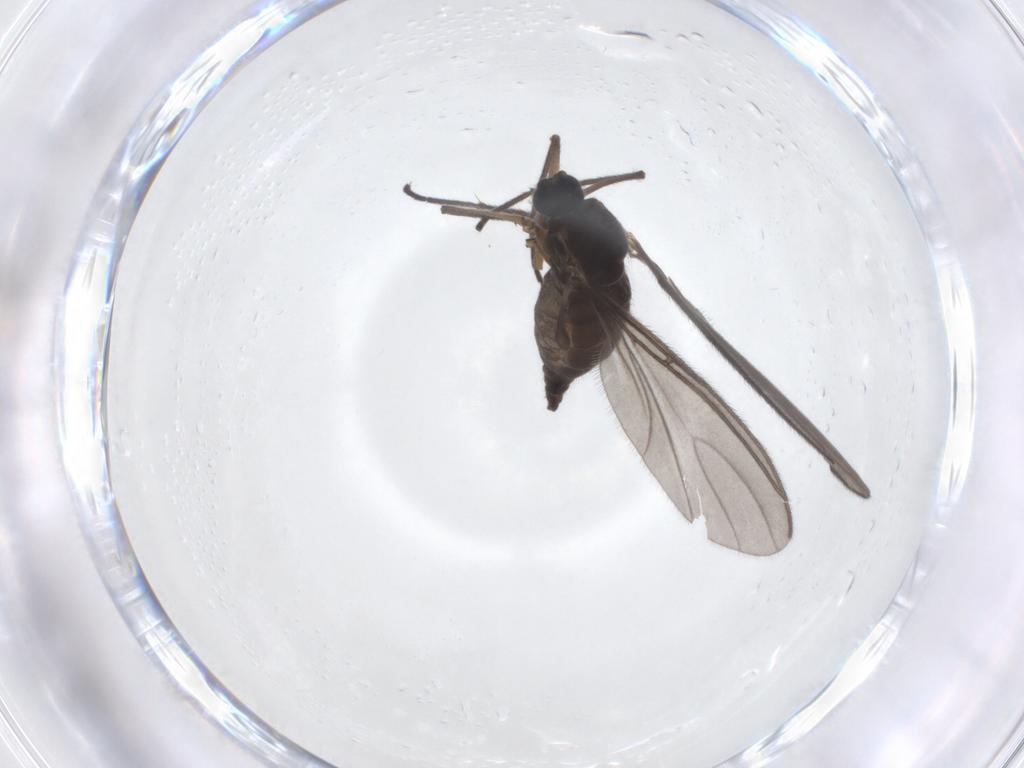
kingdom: Animalia
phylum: Arthropoda
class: Insecta
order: Diptera
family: Sciaridae
